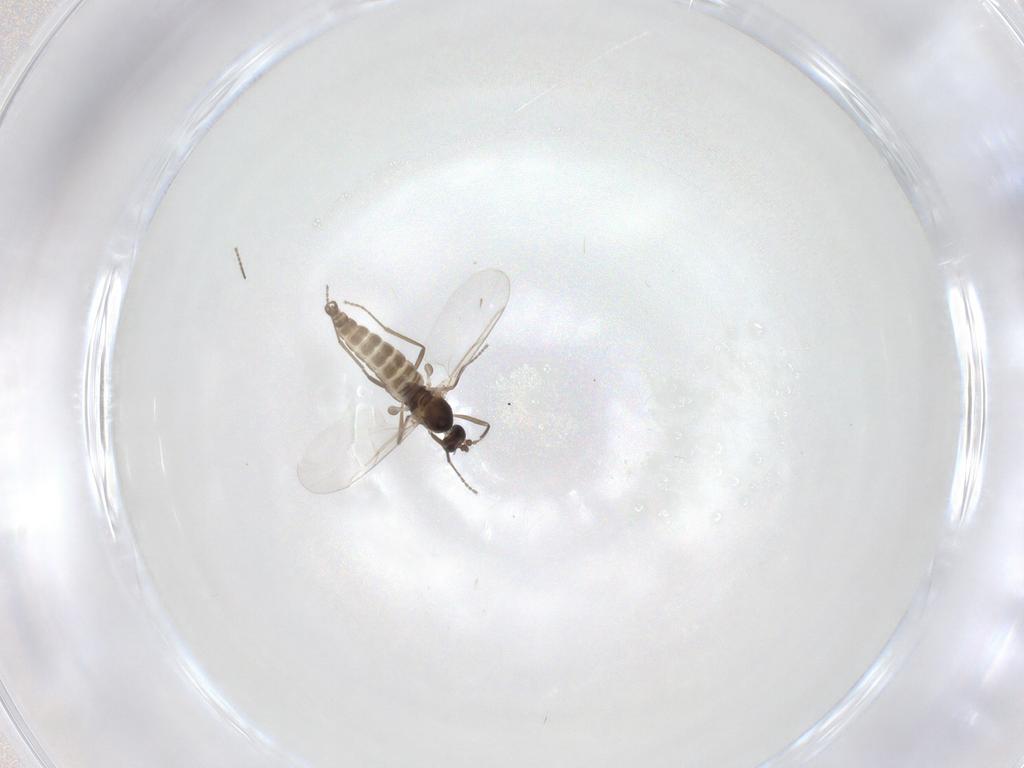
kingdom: Animalia
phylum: Arthropoda
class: Insecta
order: Diptera
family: Cecidomyiidae
